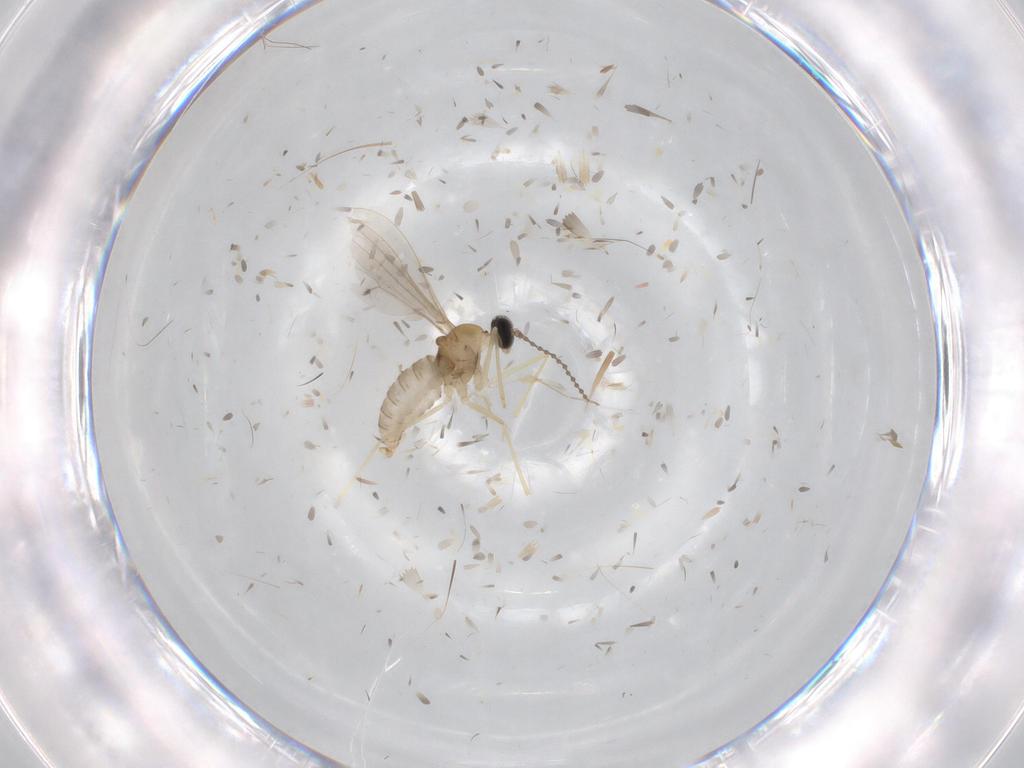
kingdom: Animalia
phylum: Arthropoda
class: Insecta
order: Diptera
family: Cecidomyiidae
